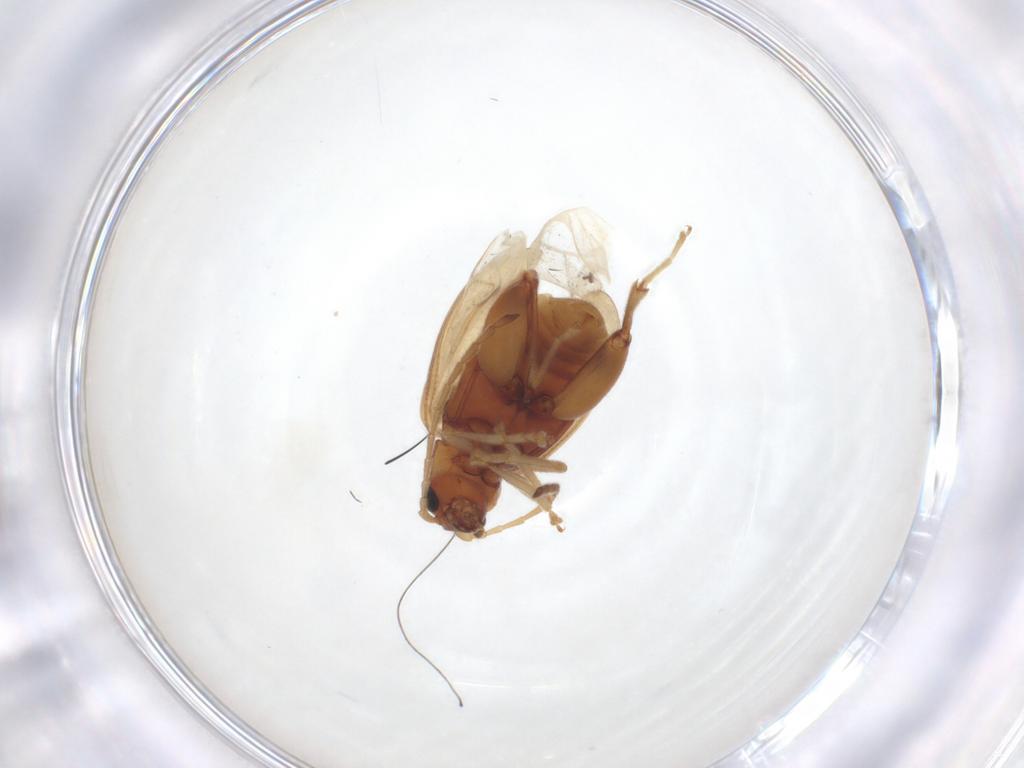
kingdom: Animalia
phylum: Arthropoda
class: Insecta
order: Coleoptera
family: Chrysomelidae
